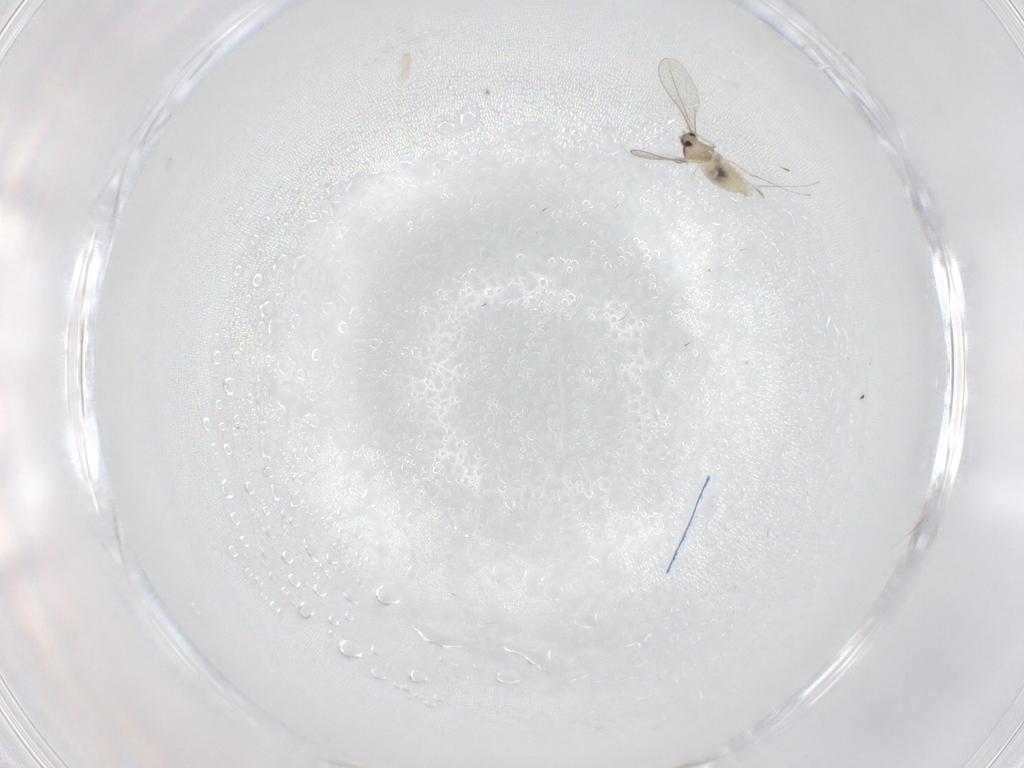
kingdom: Animalia
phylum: Arthropoda
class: Insecta
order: Diptera
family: Cecidomyiidae
